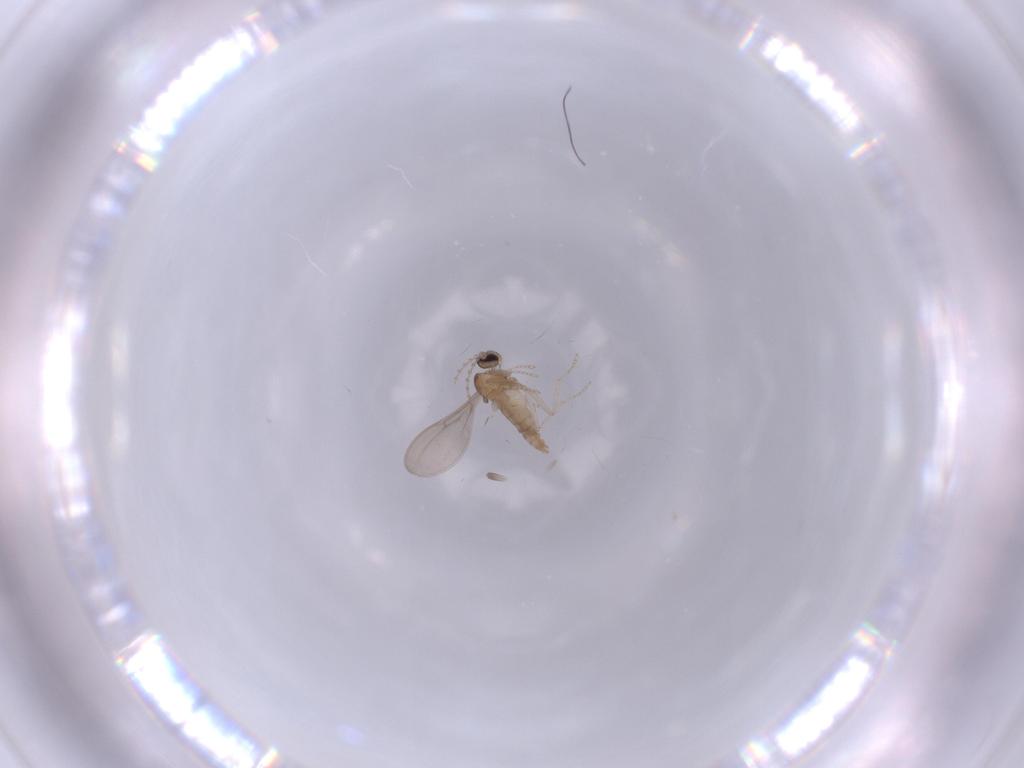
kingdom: Animalia
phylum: Arthropoda
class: Insecta
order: Diptera
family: Cecidomyiidae
